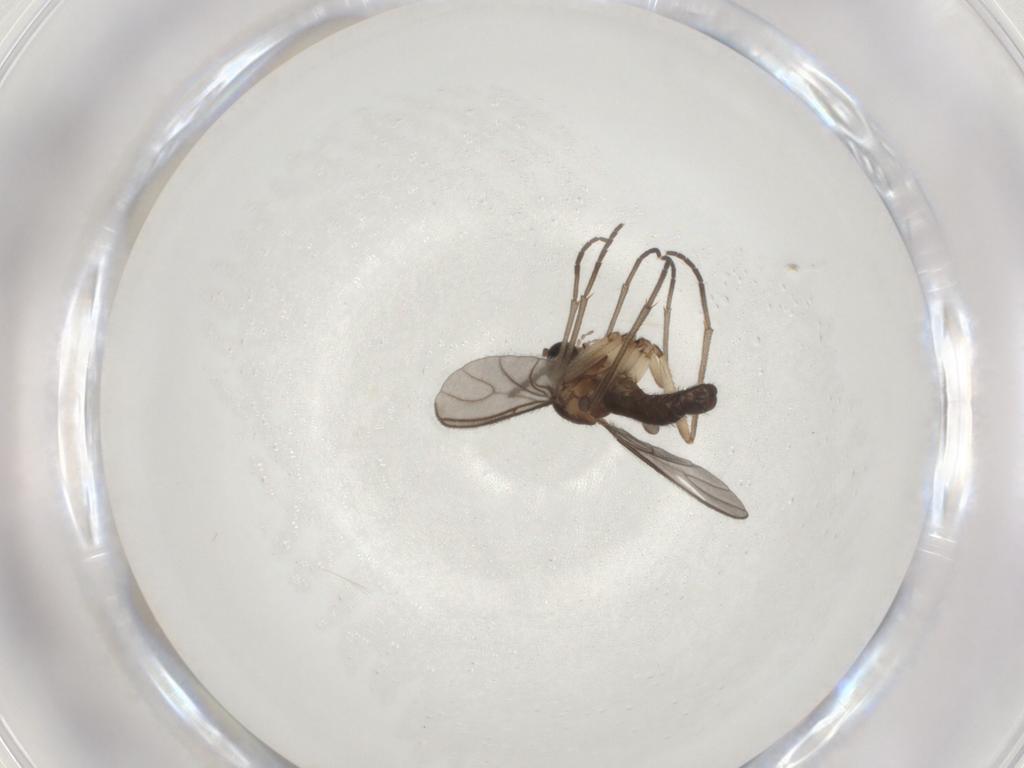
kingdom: Animalia
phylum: Arthropoda
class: Insecta
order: Diptera
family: Sciaridae
